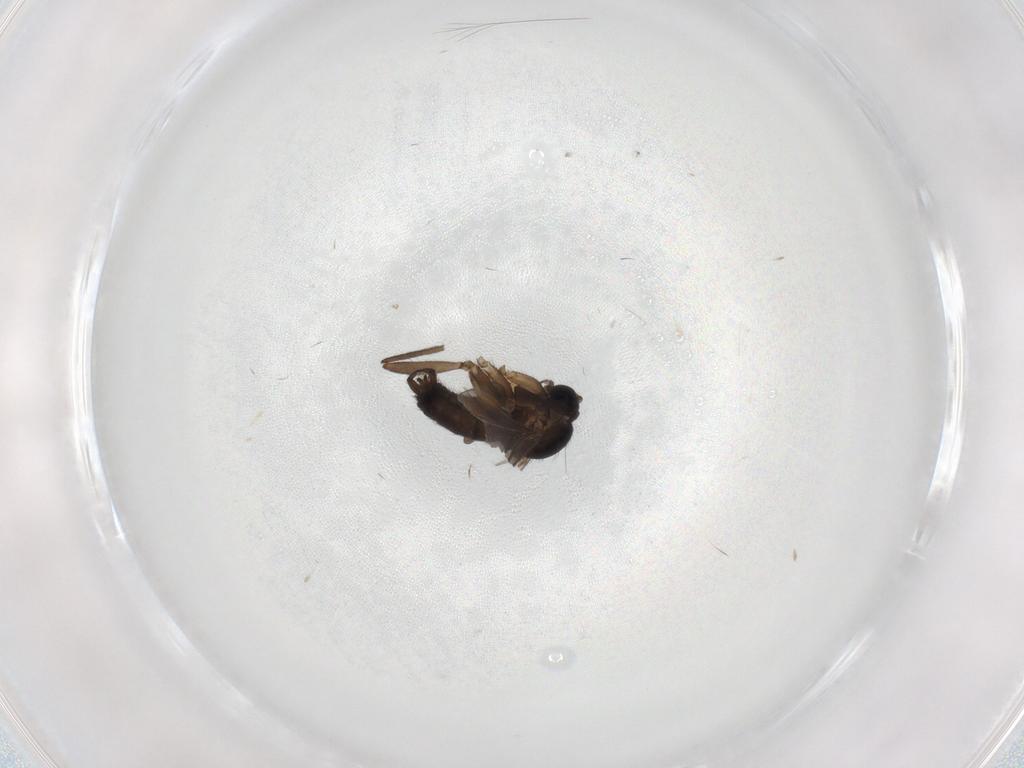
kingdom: Animalia
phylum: Arthropoda
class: Insecta
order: Diptera
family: Sciaridae
